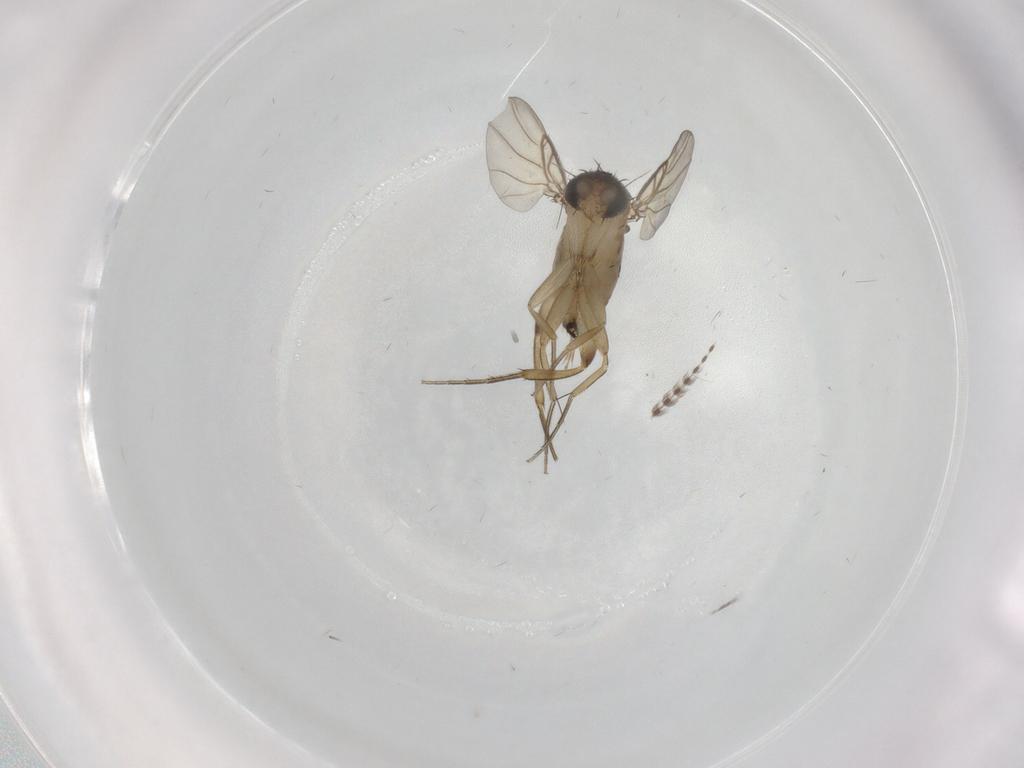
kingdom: Animalia
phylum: Arthropoda
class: Insecta
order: Diptera
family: Phoridae
